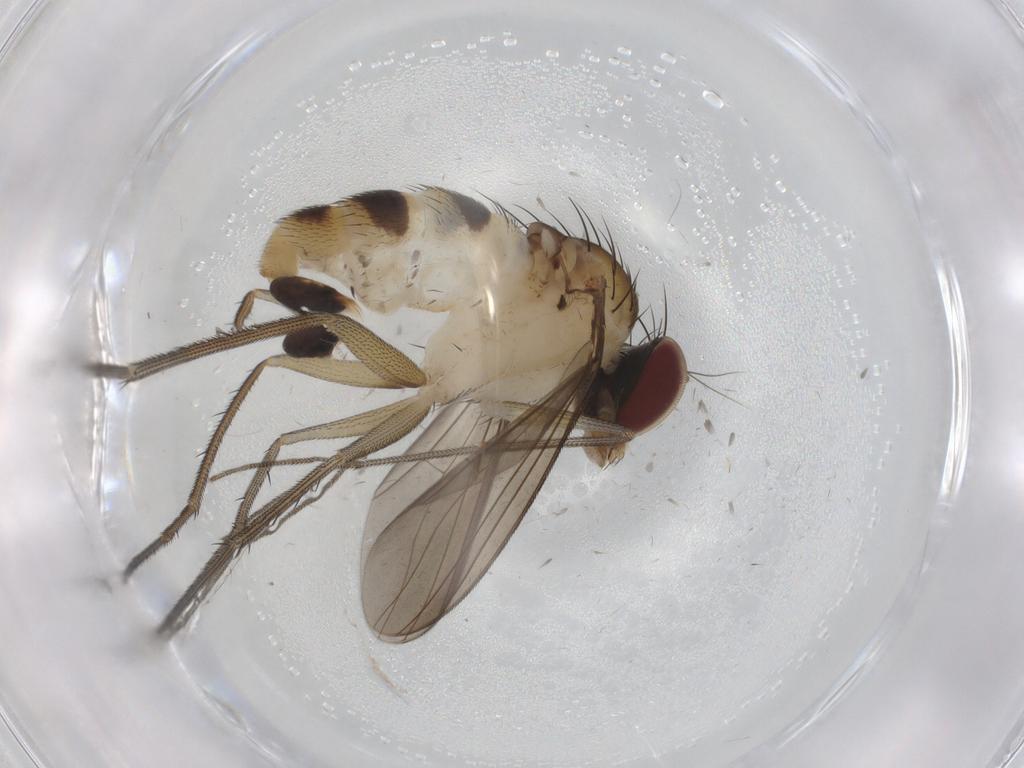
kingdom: Animalia
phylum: Arthropoda
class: Insecta
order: Diptera
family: Dolichopodidae
